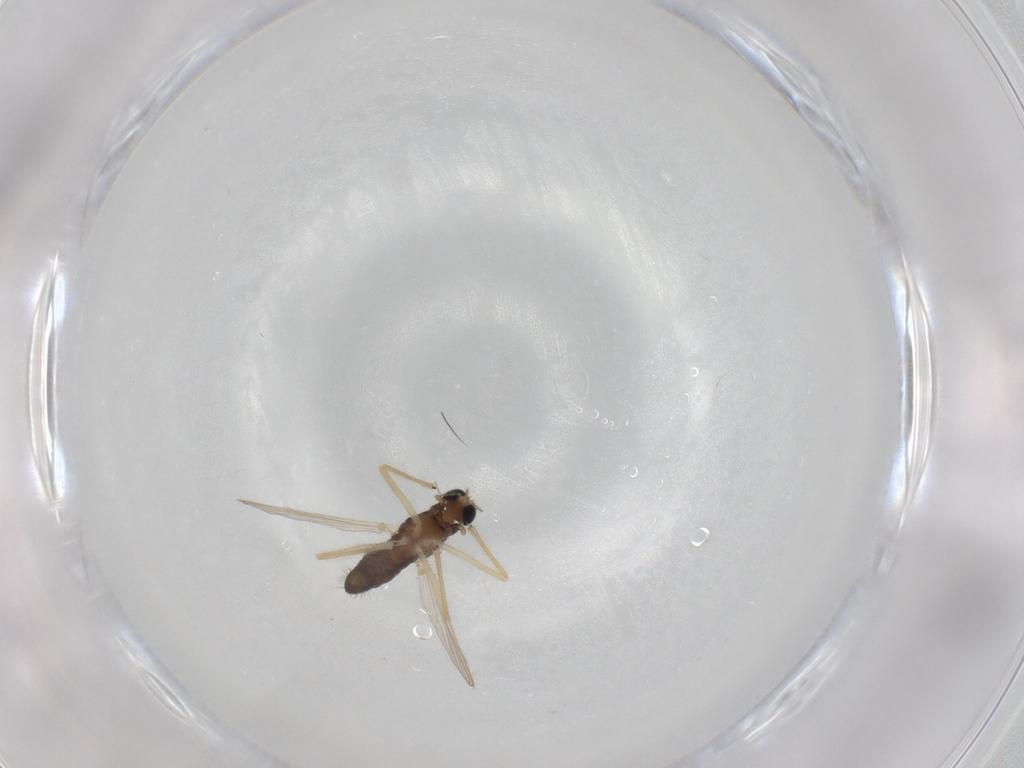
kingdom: Animalia
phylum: Arthropoda
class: Insecta
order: Diptera
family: Chironomidae
